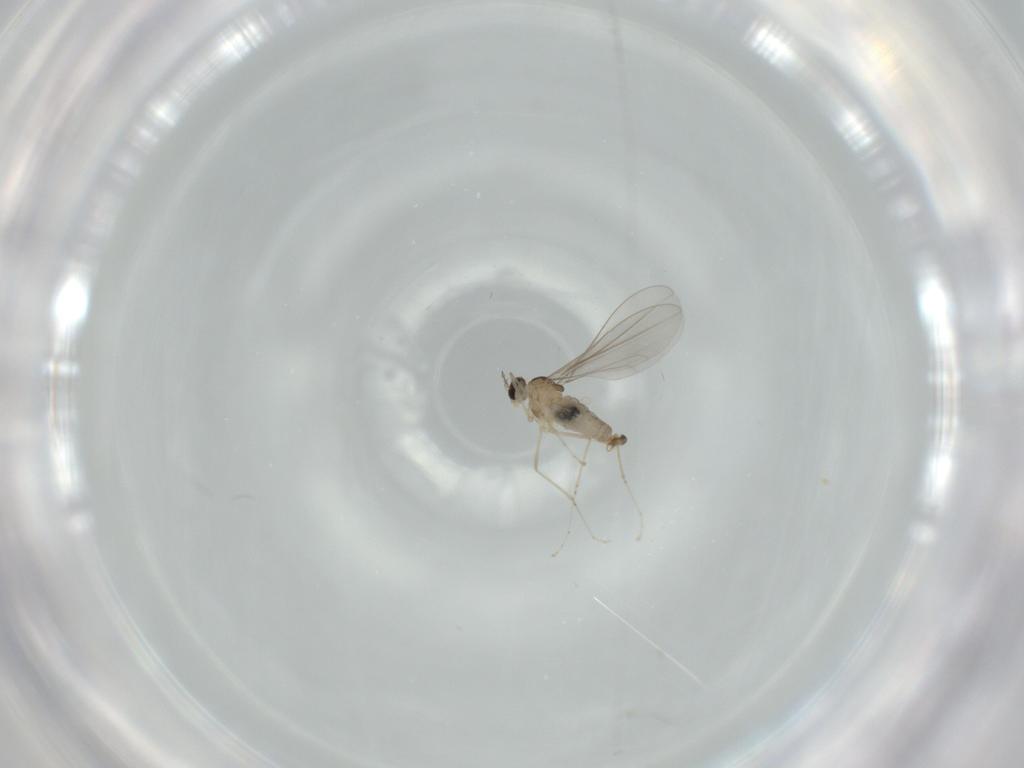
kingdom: Animalia
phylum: Arthropoda
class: Insecta
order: Diptera
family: Cecidomyiidae
